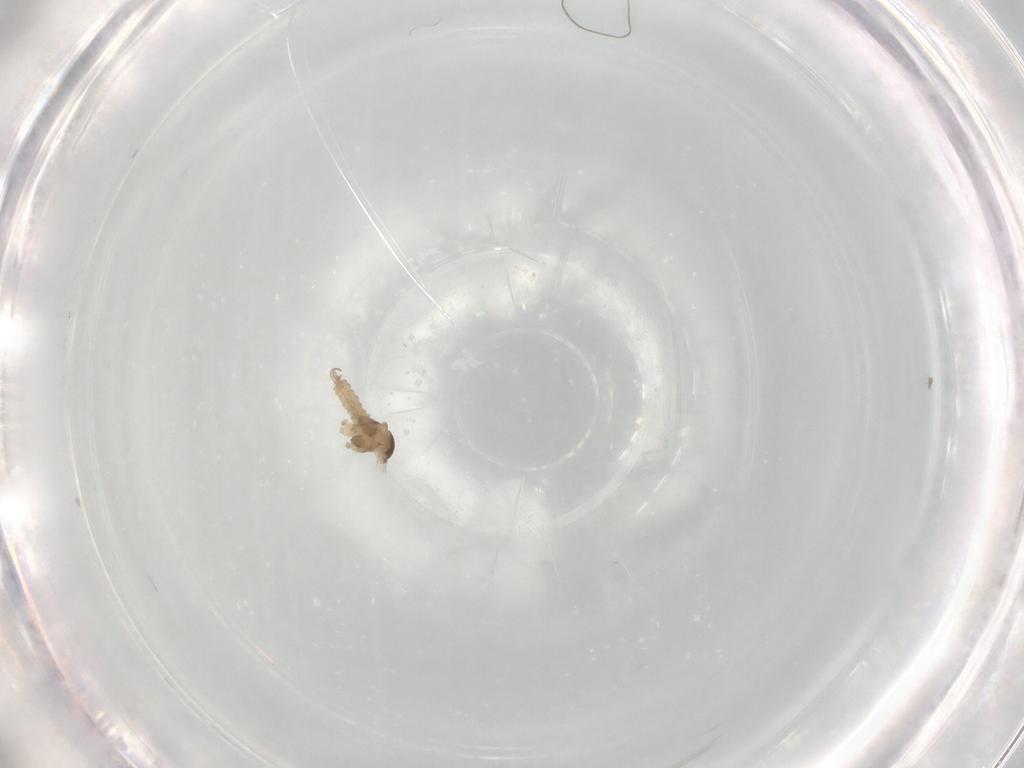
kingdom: Animalia
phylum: Arthropoda
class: Insecta
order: Diptera
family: Cecidomyiidae
